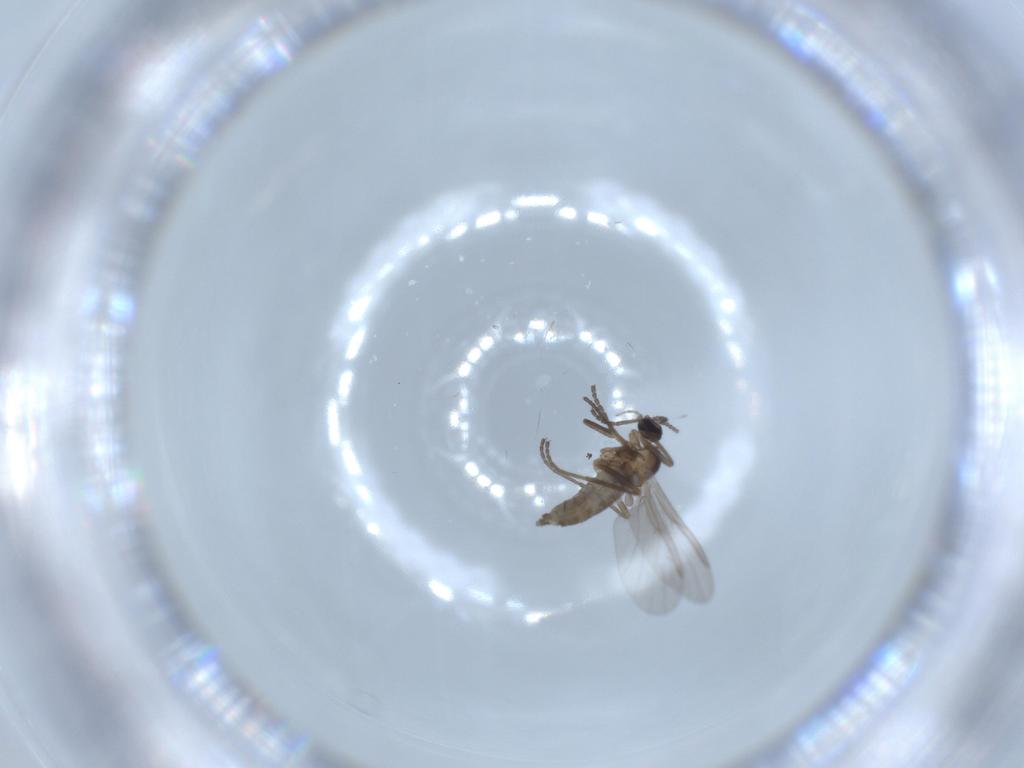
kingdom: Animalia
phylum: Arthropoda
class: Insecta
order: Diptera
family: Cecidomyiidae
